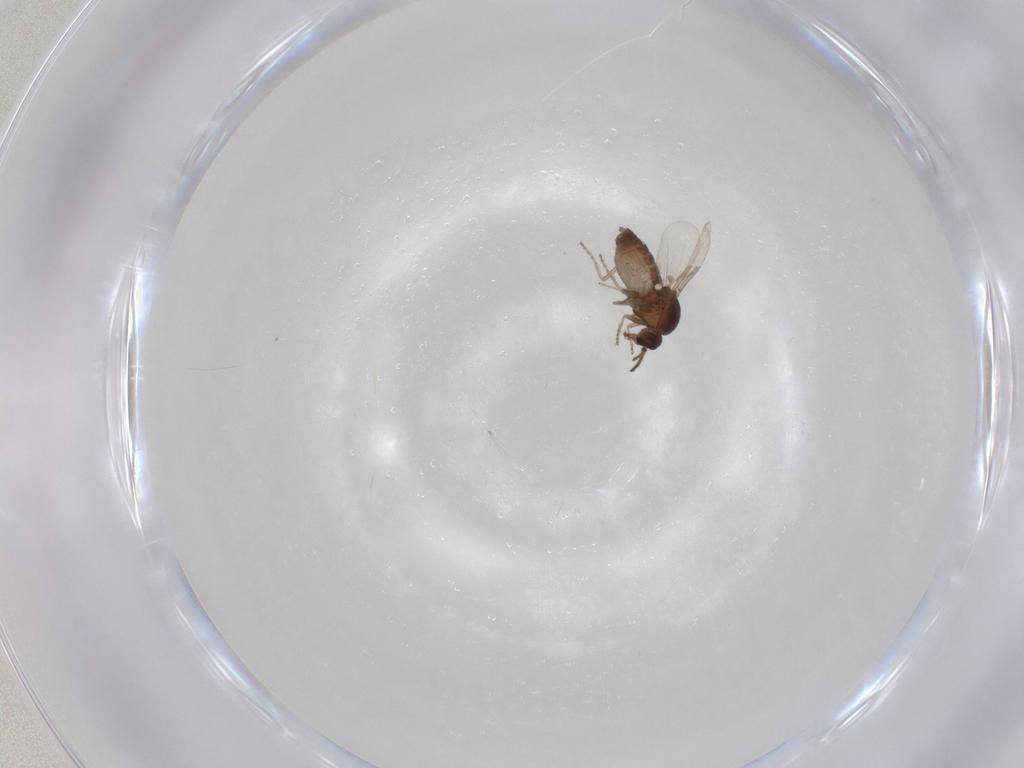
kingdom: Animalia
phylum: Arthropoda
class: Insecta
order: Diptera
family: Ceratopogonidae
